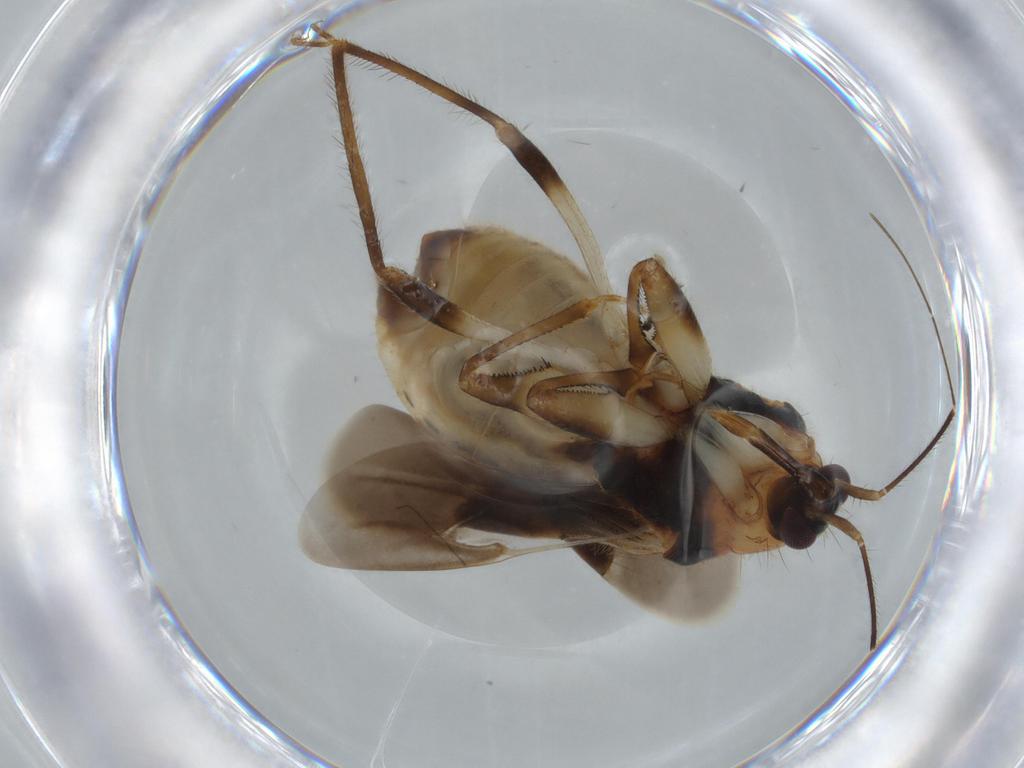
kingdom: Animalia
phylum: Arthropoda
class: Insecta
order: Hemiptera
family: Nabidae
